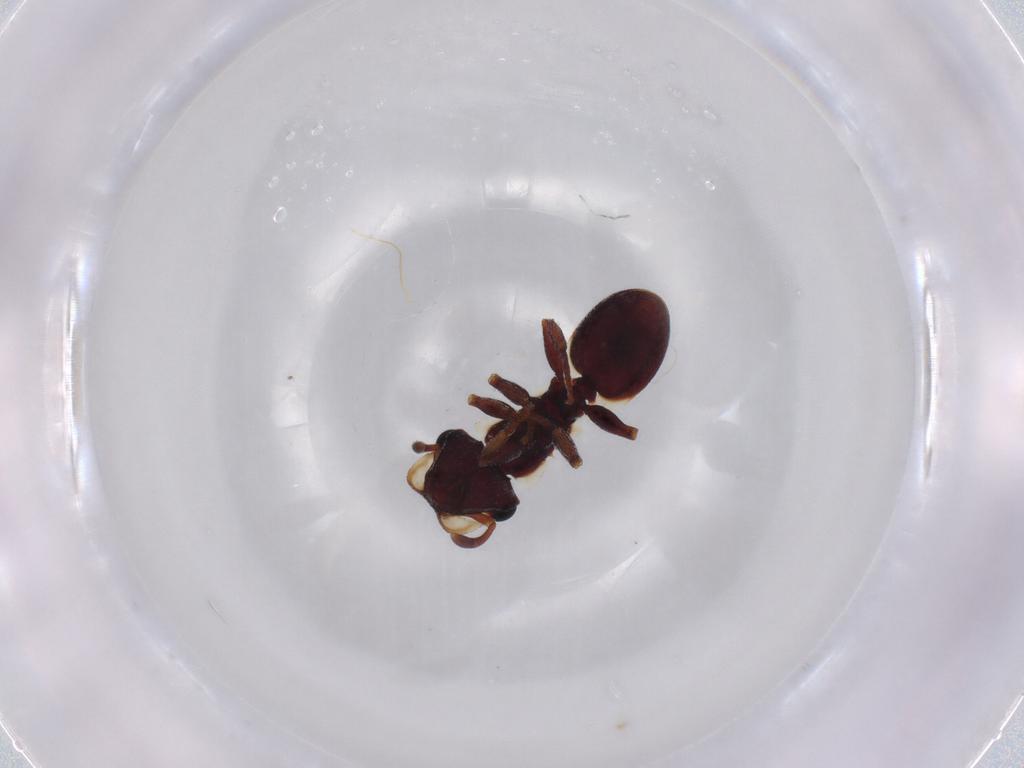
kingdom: Animalia
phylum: Arthropoda
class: Insecta
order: Hymenoptera
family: Formicidae
